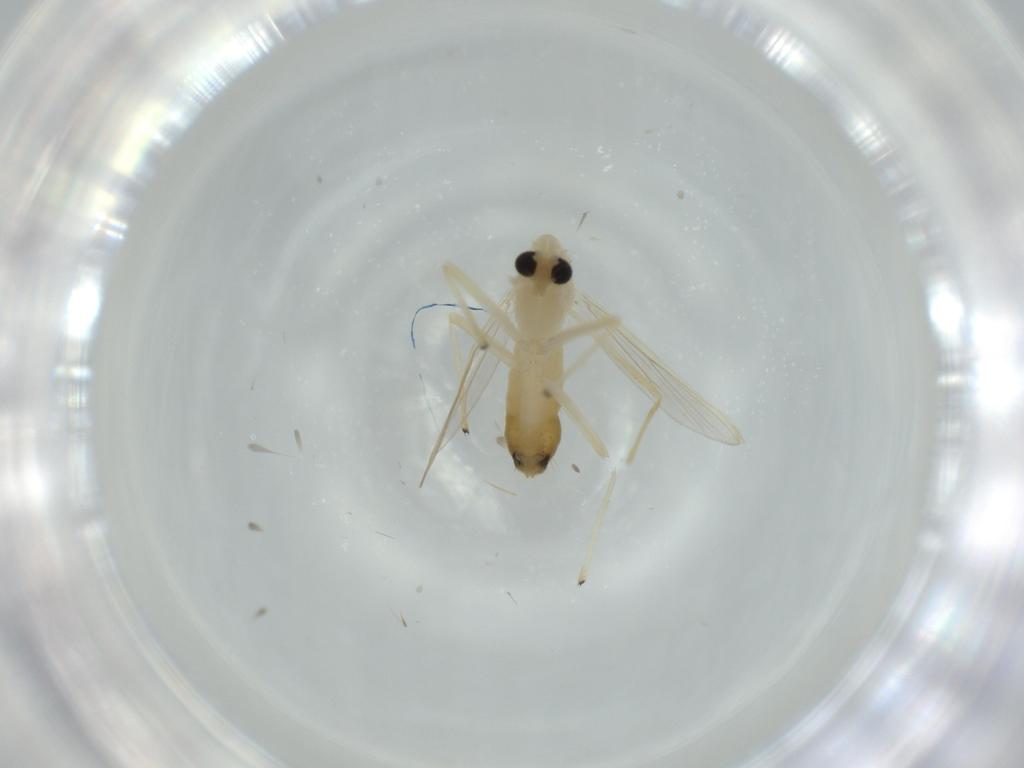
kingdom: Animalia
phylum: Arthropoda
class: Insecta
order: Diptera
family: Chironomidae
